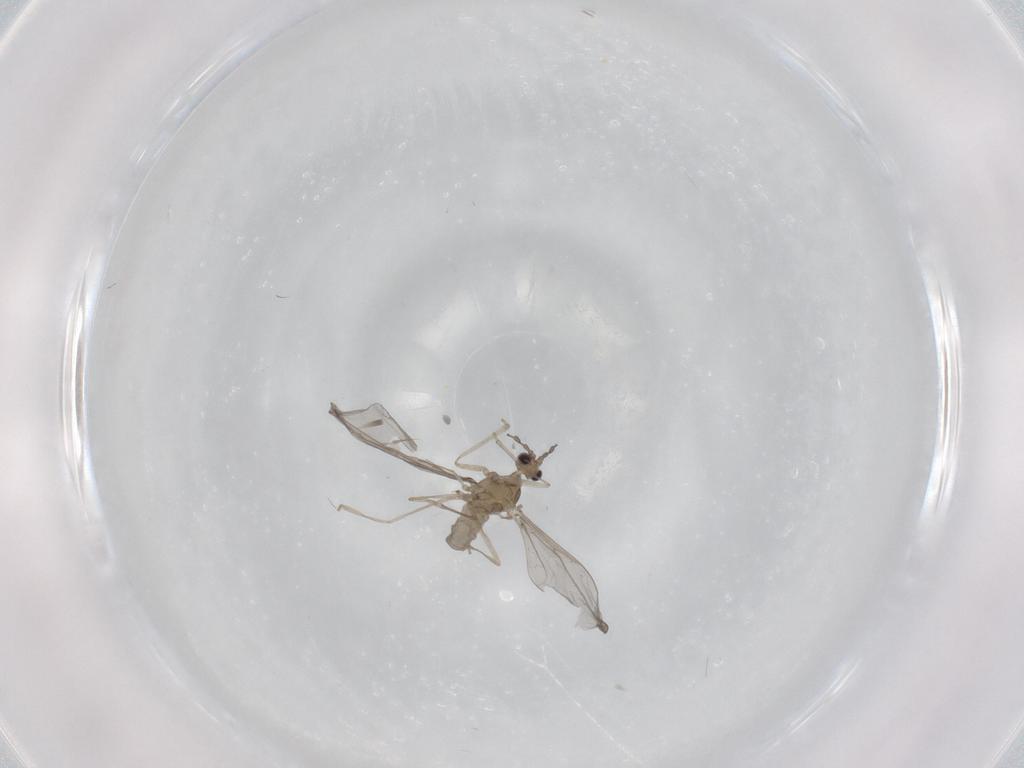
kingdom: Animalia
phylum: Arthropoda
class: Insecta
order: Diptera
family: Cecidomyiidae
